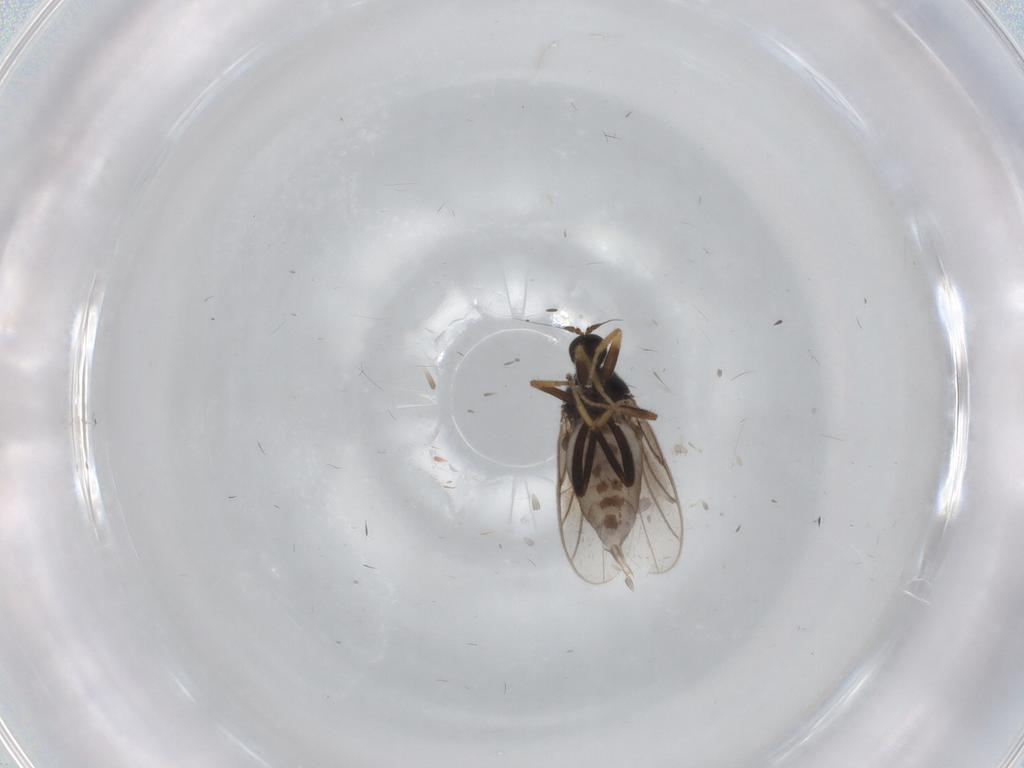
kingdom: Animalia
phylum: Arthropoda
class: Insecta
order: Diptera
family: Hybotidae
